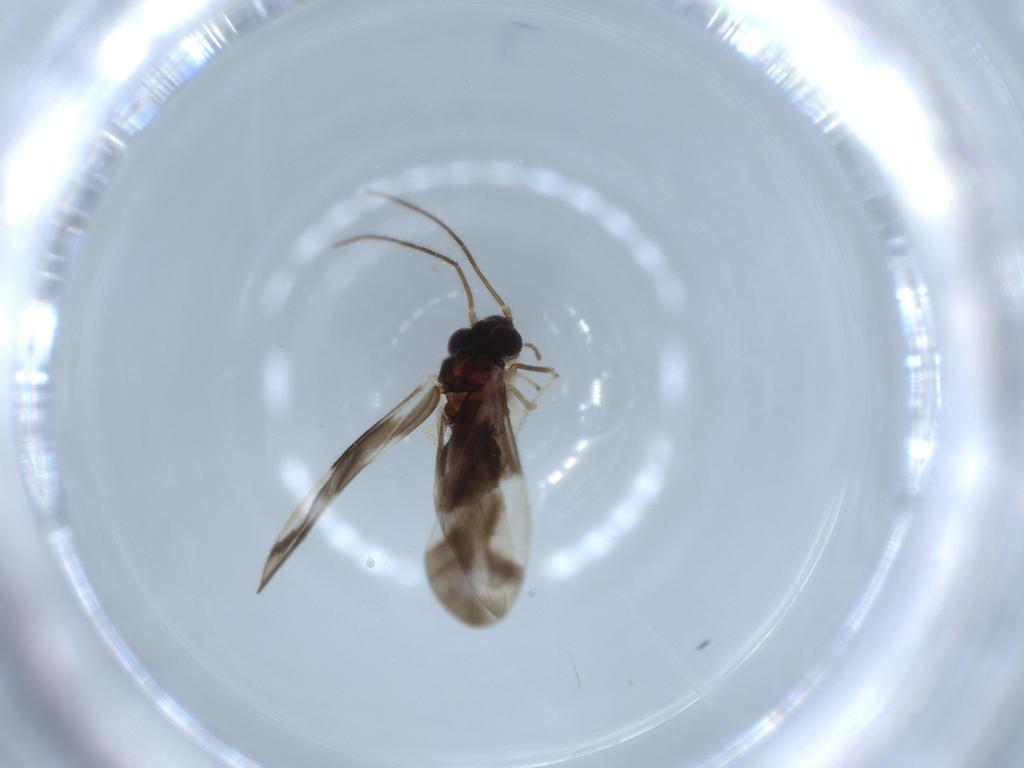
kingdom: Animalia
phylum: Arthropoda
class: Insecta
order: Psocodea
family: Caeciliusidae
